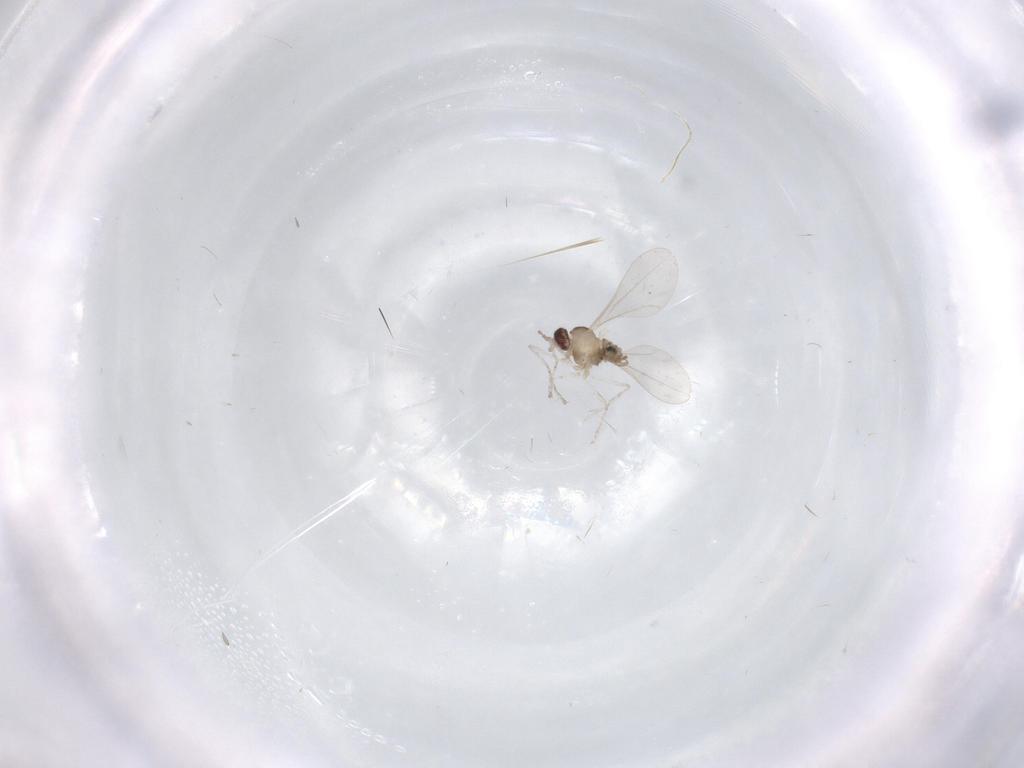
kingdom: Animalia
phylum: Arthropoda
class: Insecta
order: Diptera
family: Cecidomyiidae
